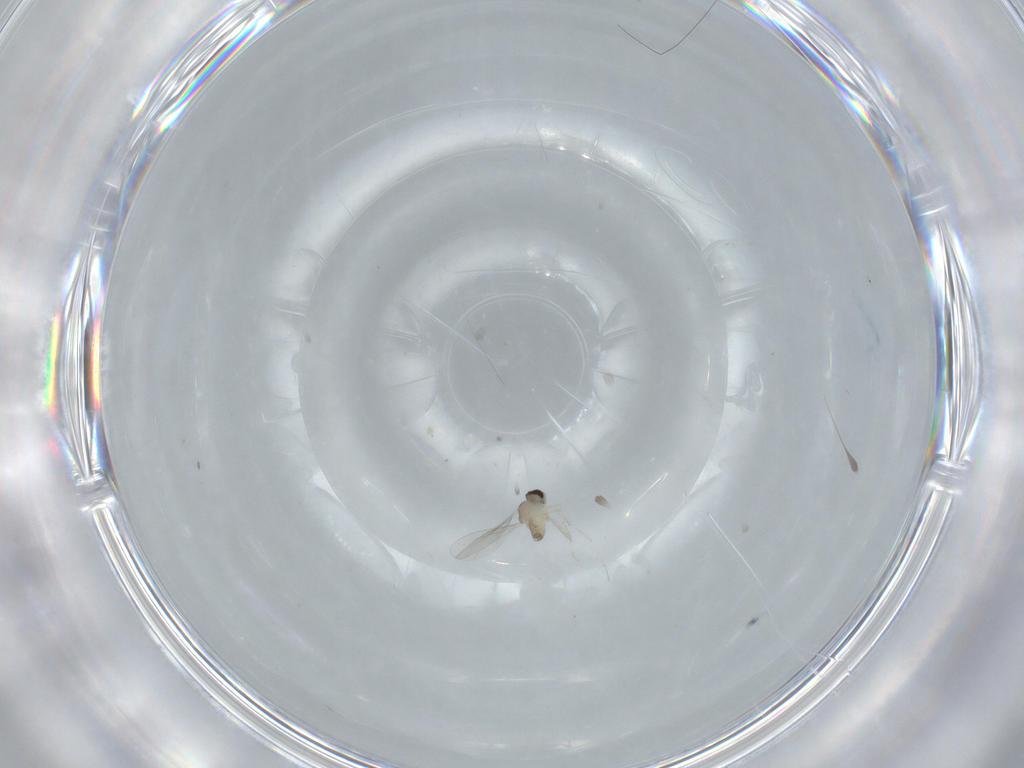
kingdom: Animalia
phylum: Arthropoda
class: Insecta
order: Diptera
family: Cecidomyiidae
